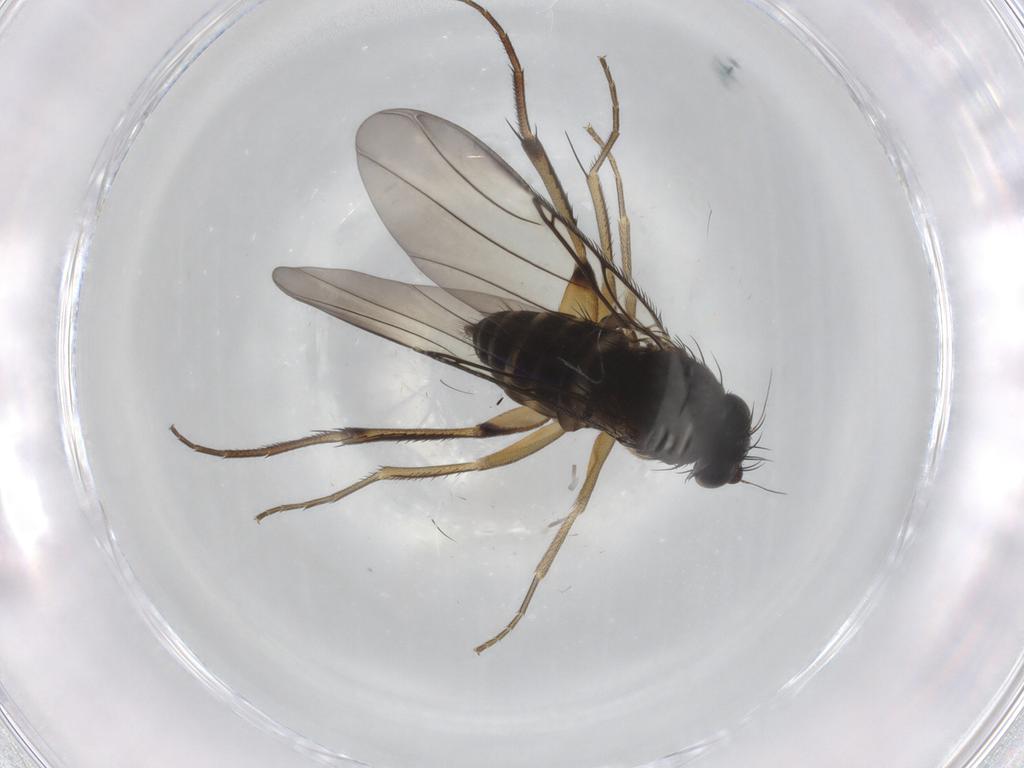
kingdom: Animalia
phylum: Arthropoda
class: Insecta
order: Diptera
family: Phoridae
